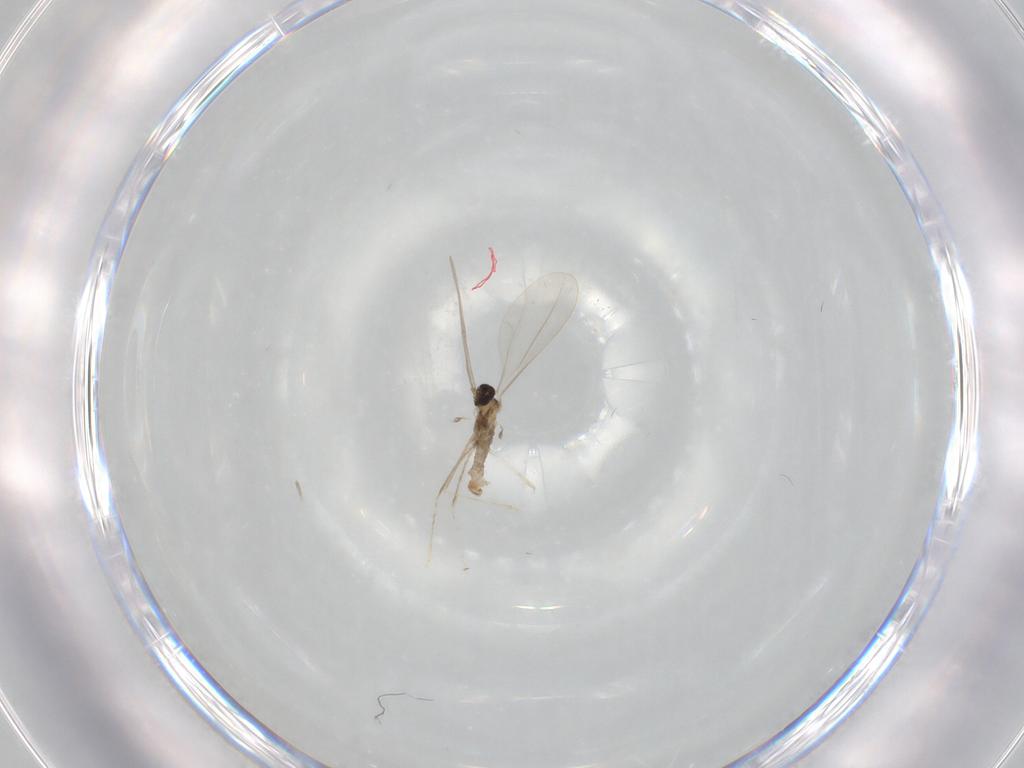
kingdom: Animalia
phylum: Arthropoda
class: Insecta
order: Diptera
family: Cecidomyiidae
